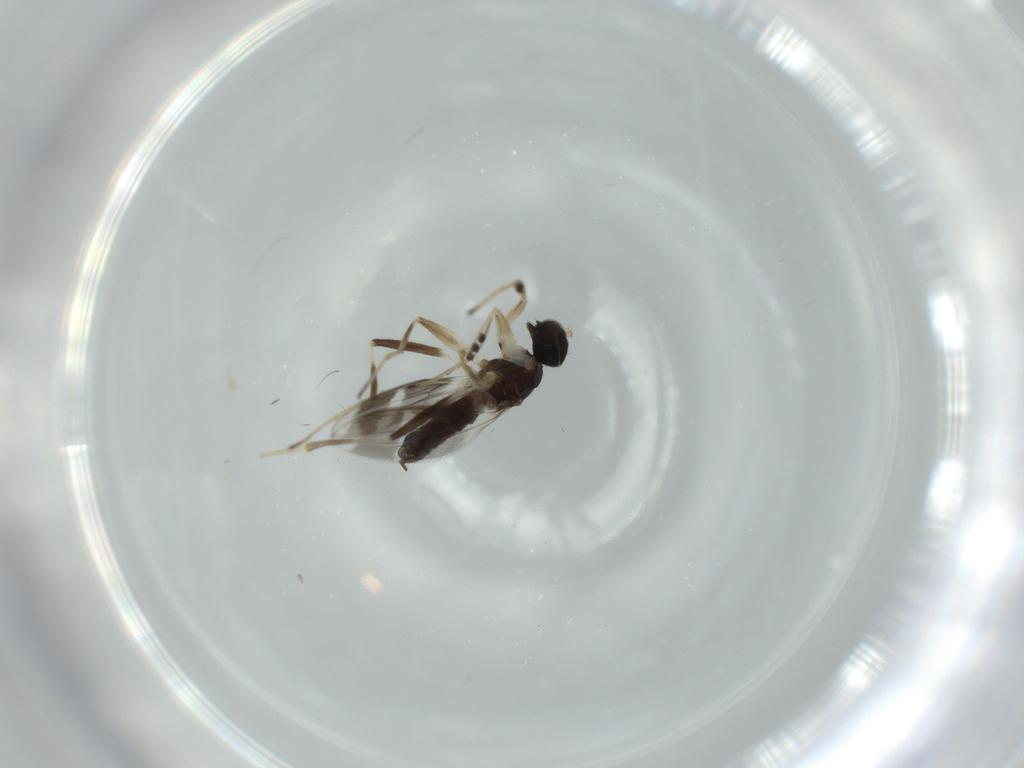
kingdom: Animalia
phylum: Arthropoda
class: Insecta
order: Diptera
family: Hybotidae
